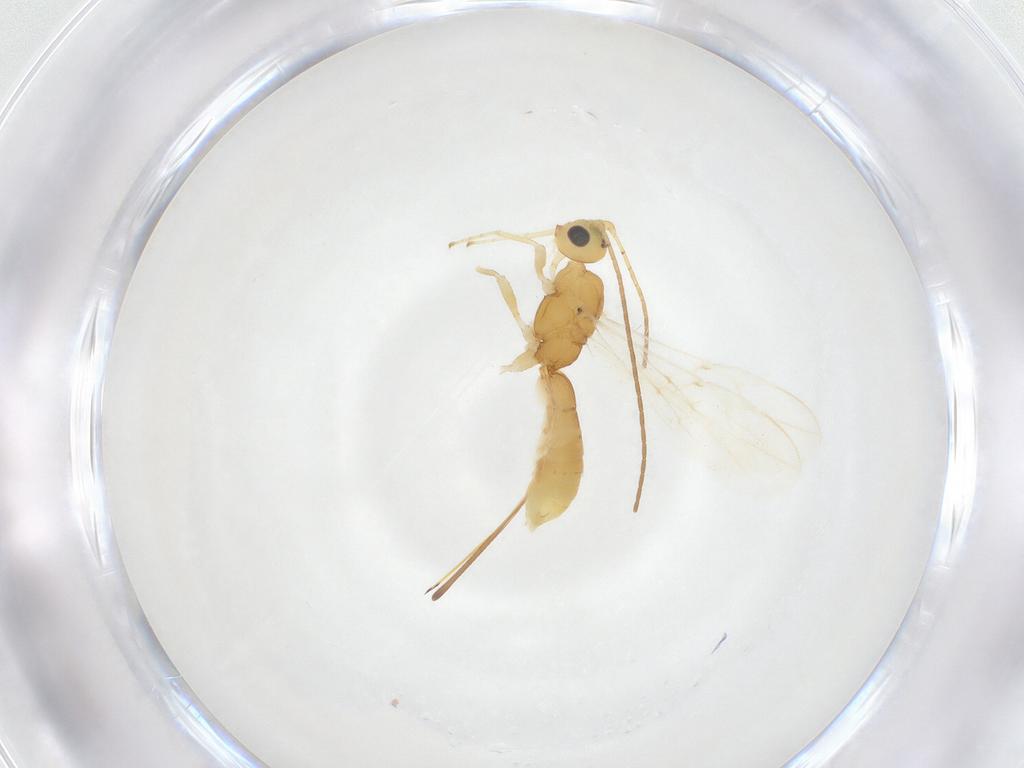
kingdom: Animalia
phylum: Arthropoda
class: Insecta
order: Hymenoptera
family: Braconidae
